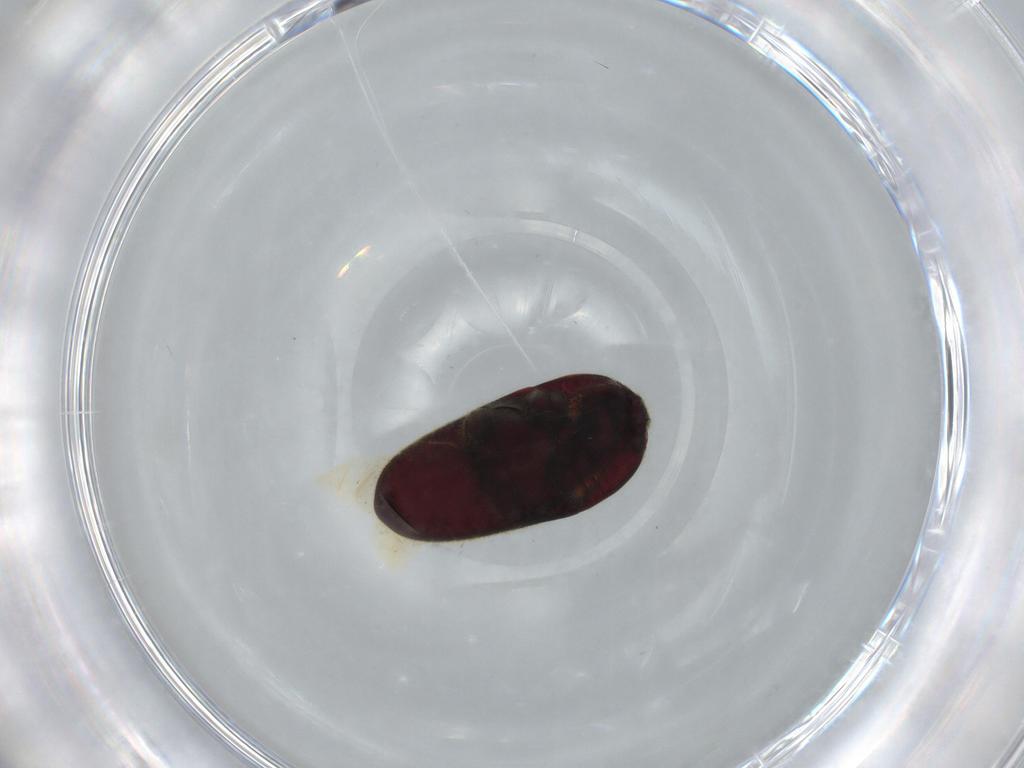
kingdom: Animalia
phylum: Arthropoda
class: Insecta
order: Coleoptera
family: Throscidae
